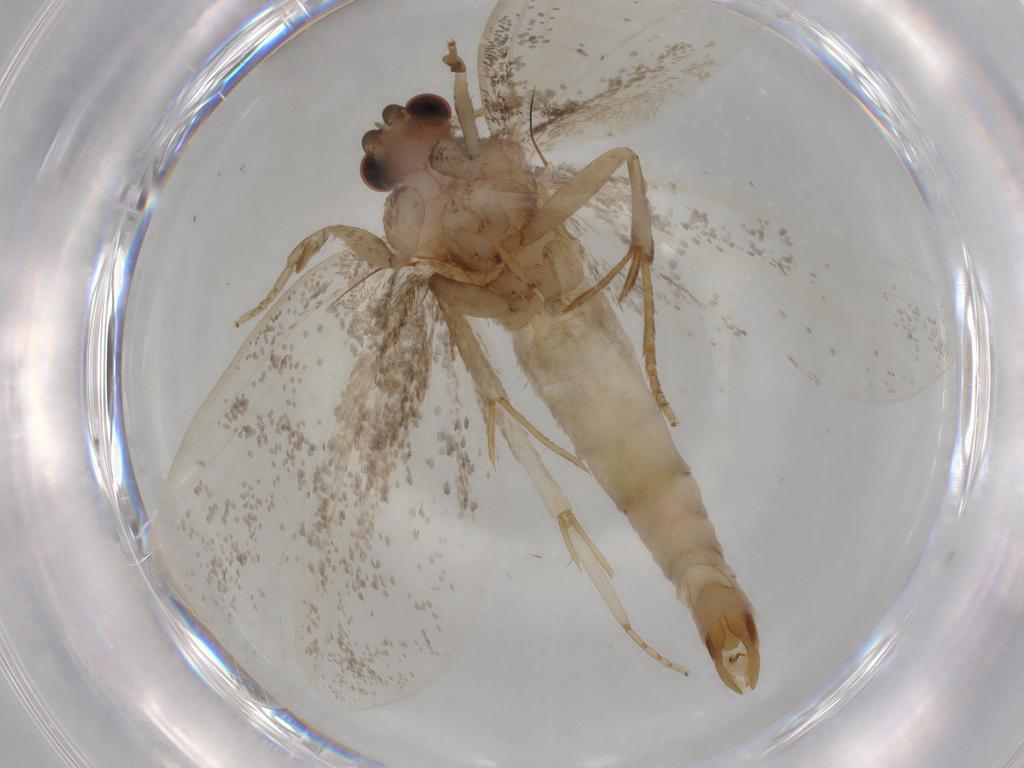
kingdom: Animalia
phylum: Arthropoda
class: Insecta
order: Lepidoptera
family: Tineidae
